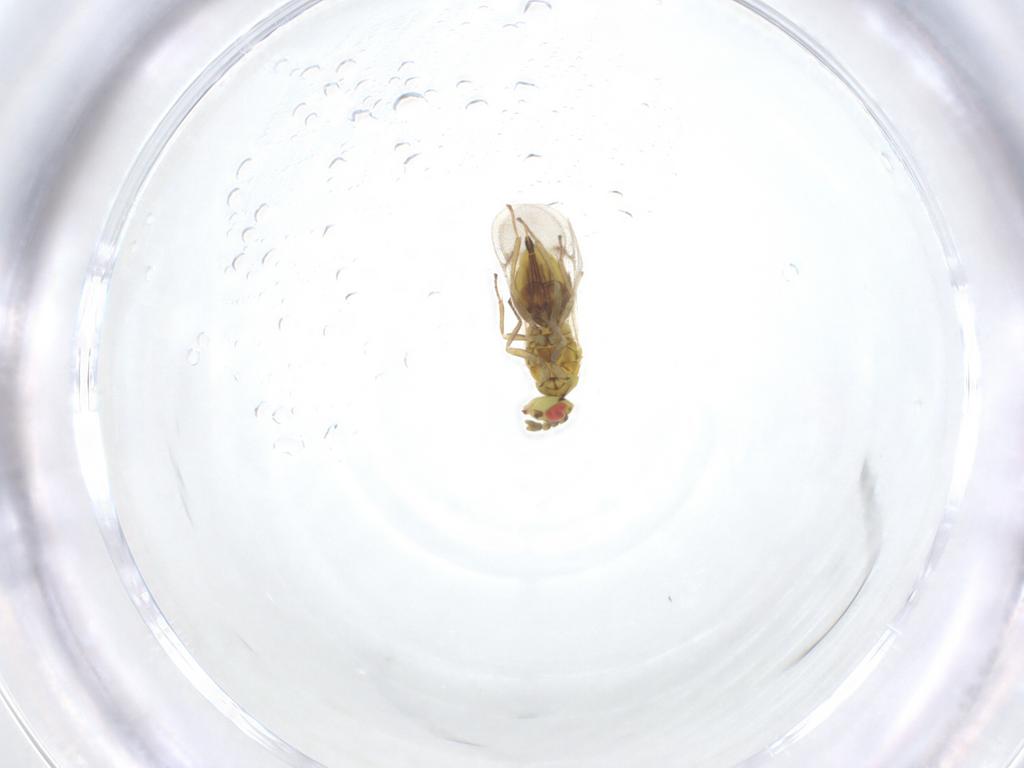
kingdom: Animalia
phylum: Arthropoda
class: Insecta
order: Hymenoptera
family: Eulophidae
